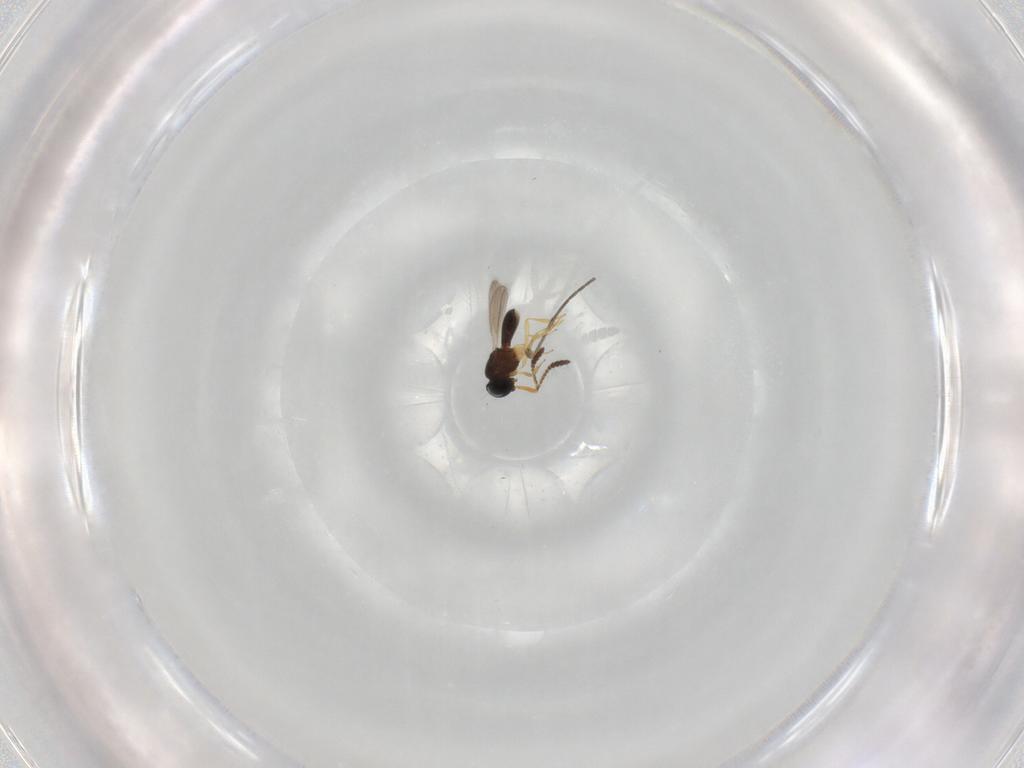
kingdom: Animalia
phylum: Arthropoda
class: Insecta
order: Hymenoptera
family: Scelionidae
